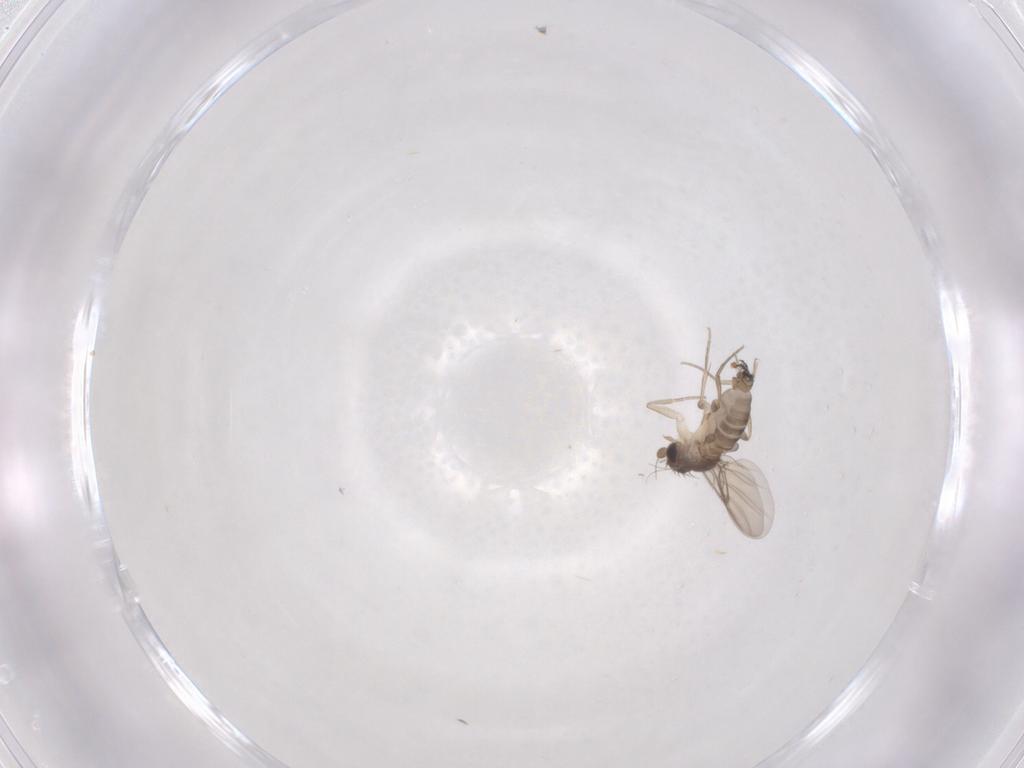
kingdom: Animalia
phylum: Arthropoda
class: Insecta
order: Diptera
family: Phoridae
